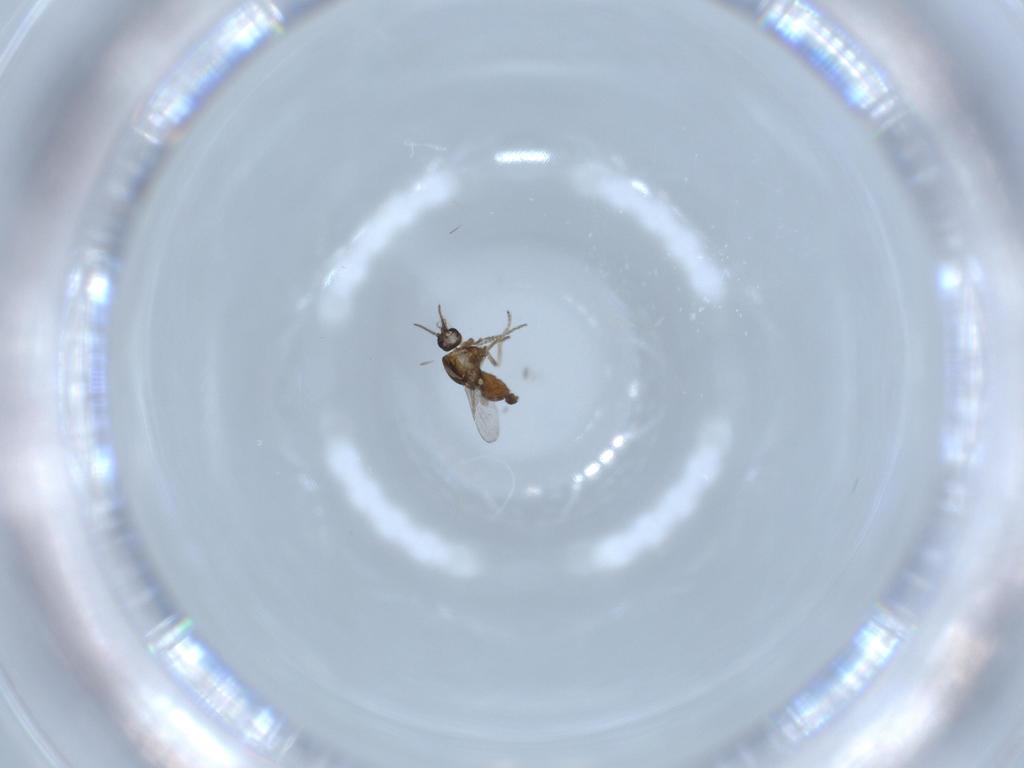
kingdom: Animalia
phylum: Arthropoda
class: Insecta
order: Diptera
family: Ceratopogonidae
